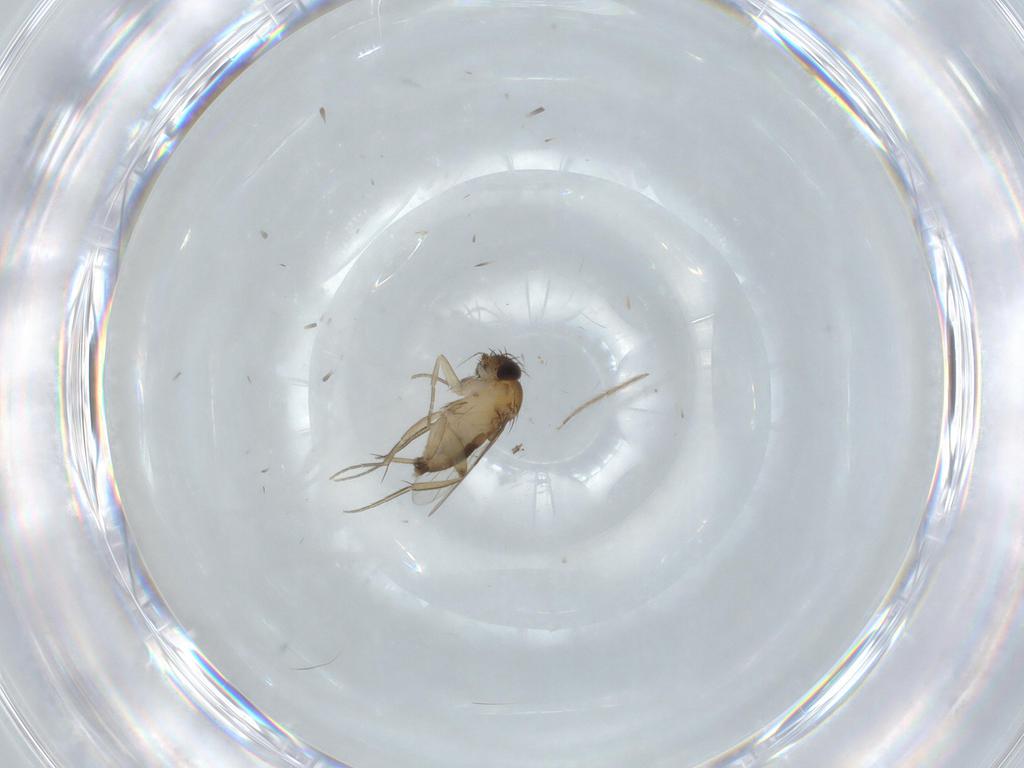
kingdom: Animalia
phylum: Arthropoda
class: Insecta
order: Diptera
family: Phoridae
